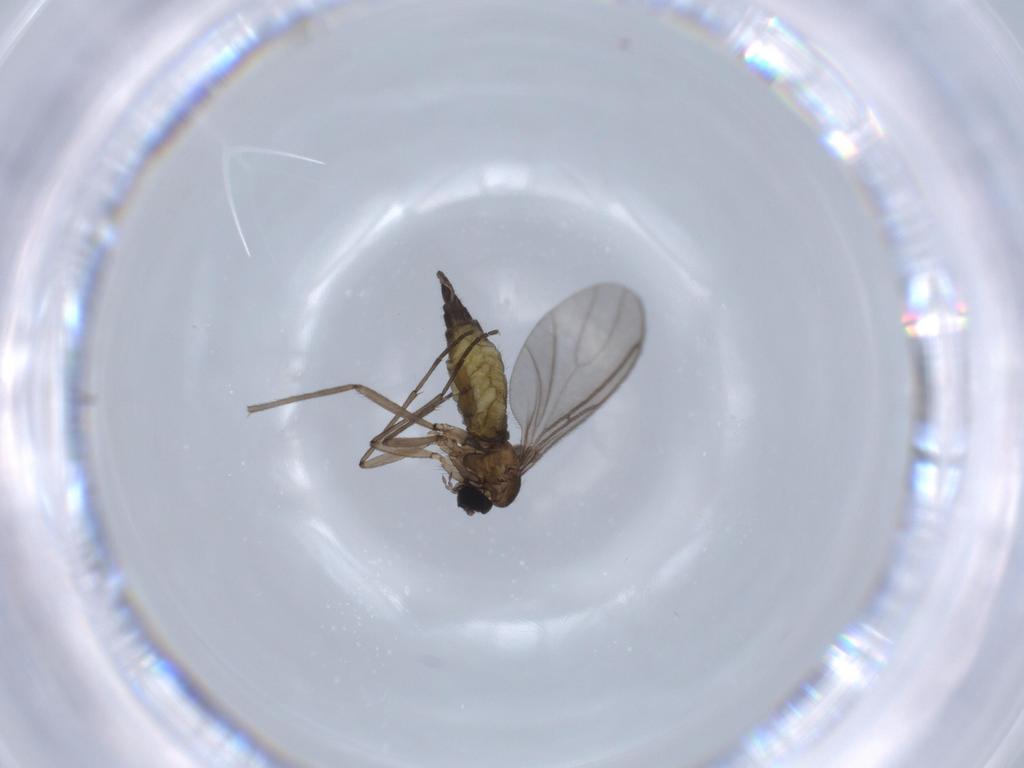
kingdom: Animalia
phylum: Arthropoda
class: Insecta
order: Diptera
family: Sciaridae
